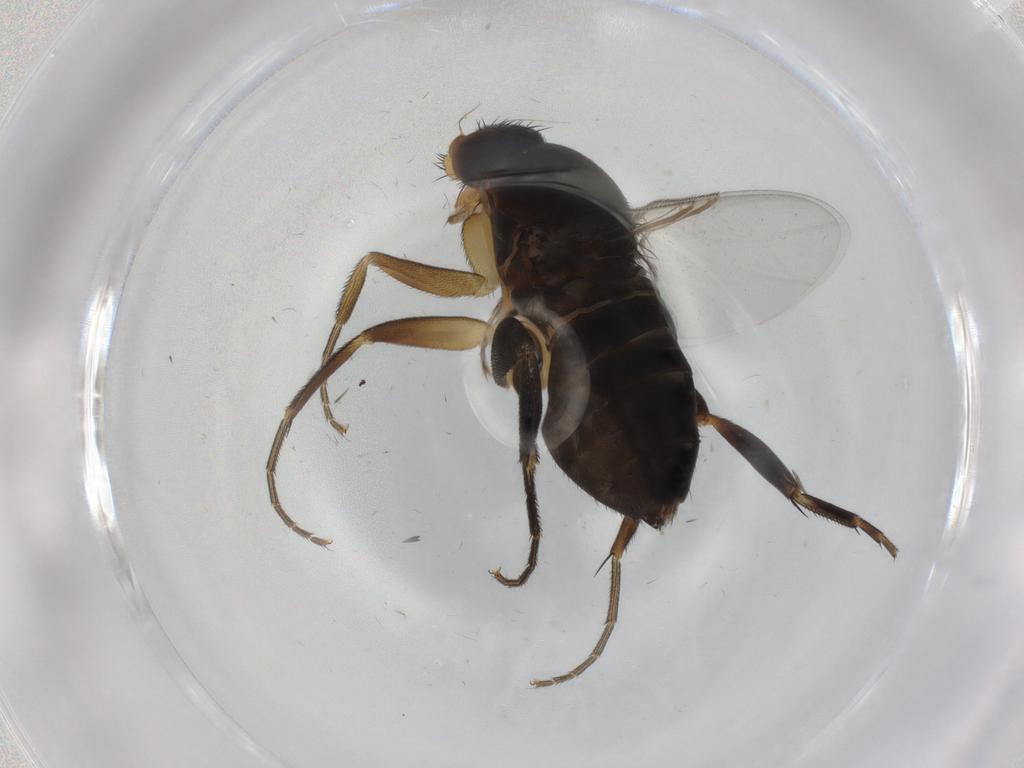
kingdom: Animalia
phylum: Arthropoda
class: Insecta
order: Diptera
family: Phoridae
